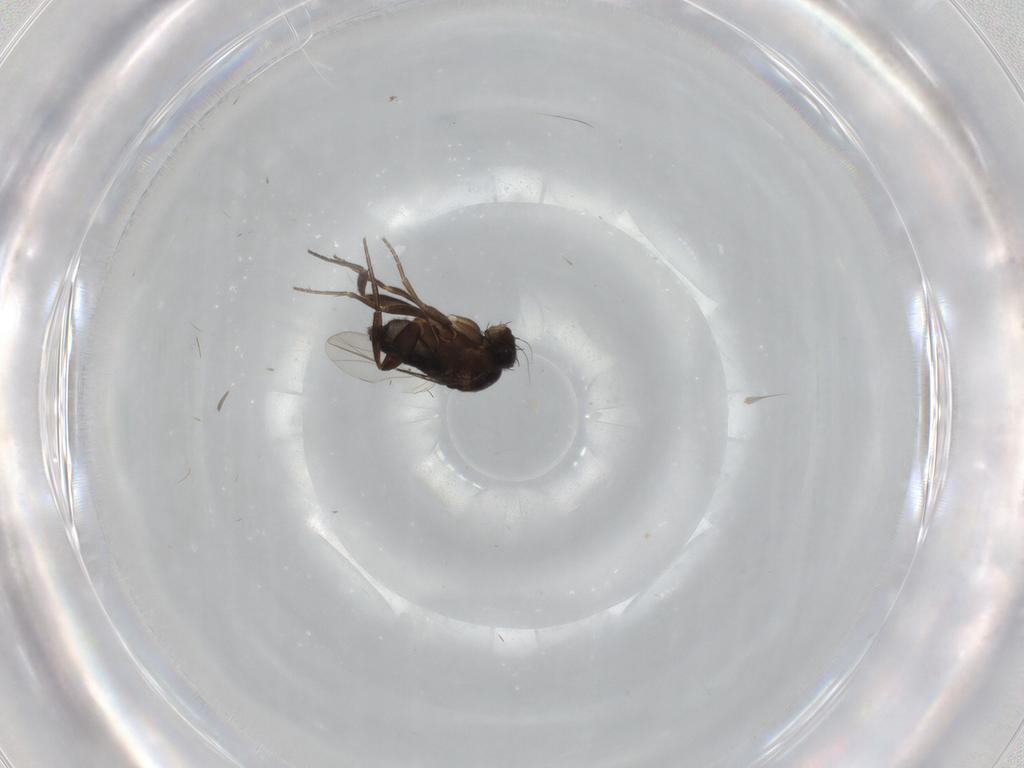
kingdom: Animalia
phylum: Arthropoda
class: Insecta
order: Diptera
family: Phoridae
